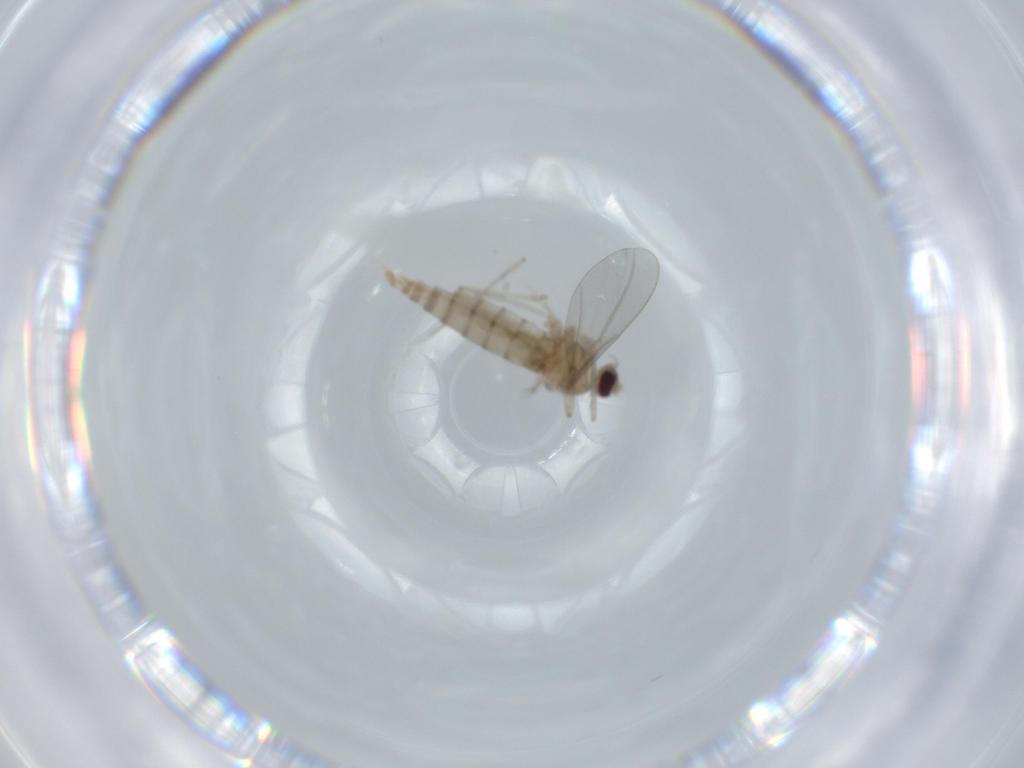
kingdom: Animalia
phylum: Arthropoda
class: Insecta
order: Diptera
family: Cecidomyiidae
